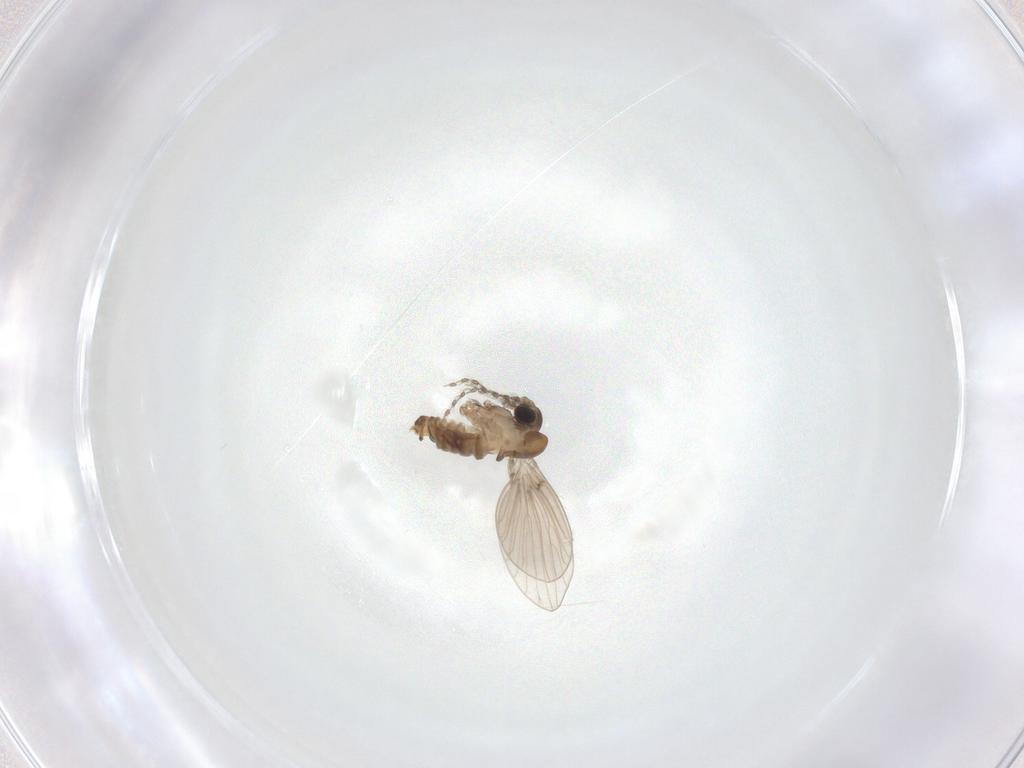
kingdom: Animalia
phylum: Arthropoda
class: Insecta
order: Diptera
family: Psychodidae
